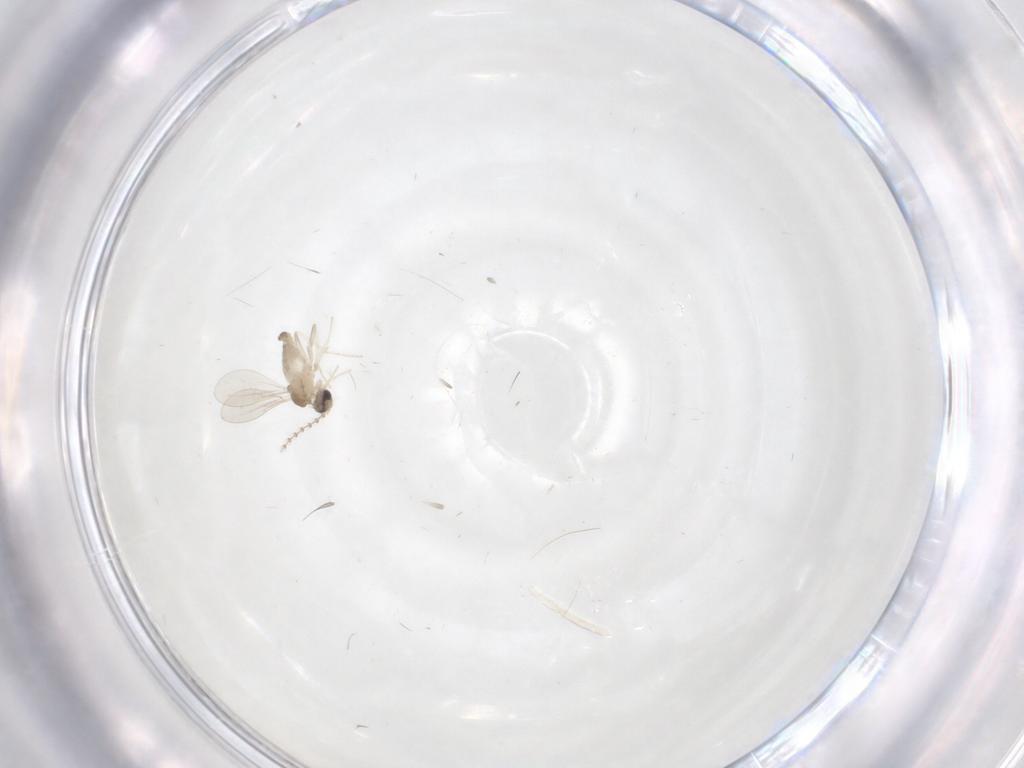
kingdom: Animalia
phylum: Arthropoda
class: Insecta
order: Diptera
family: Cecidomyiidae
